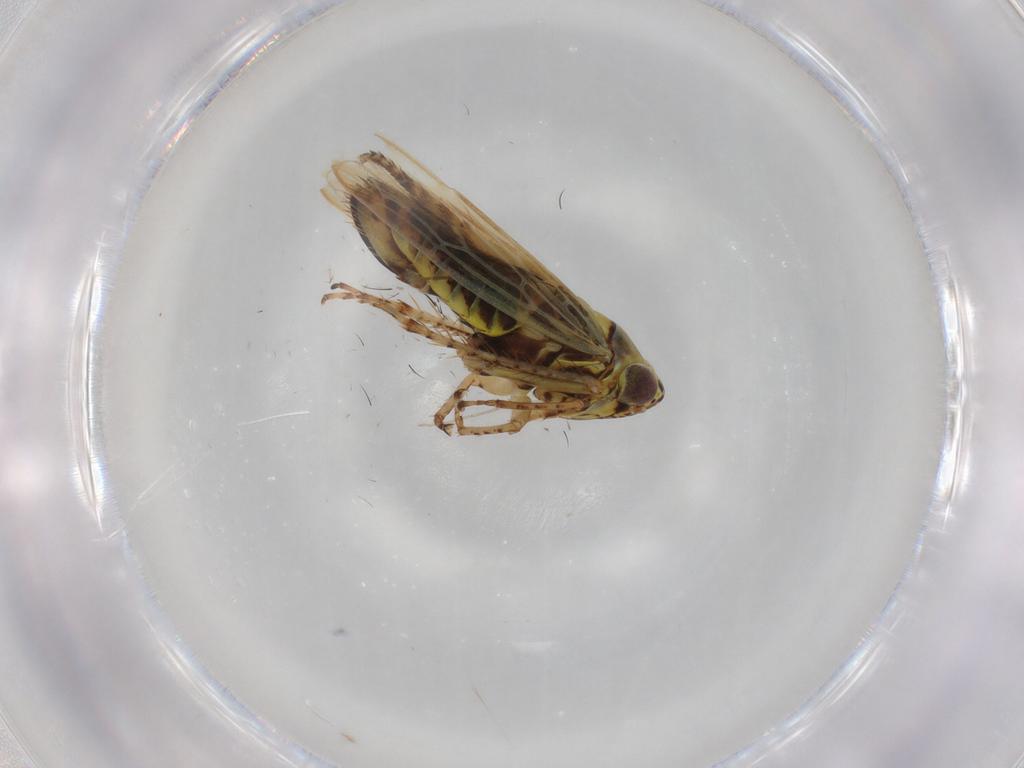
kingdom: Animalia
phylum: Arthropoda
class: Insecta
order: Hemiptera
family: Cicadellidae
